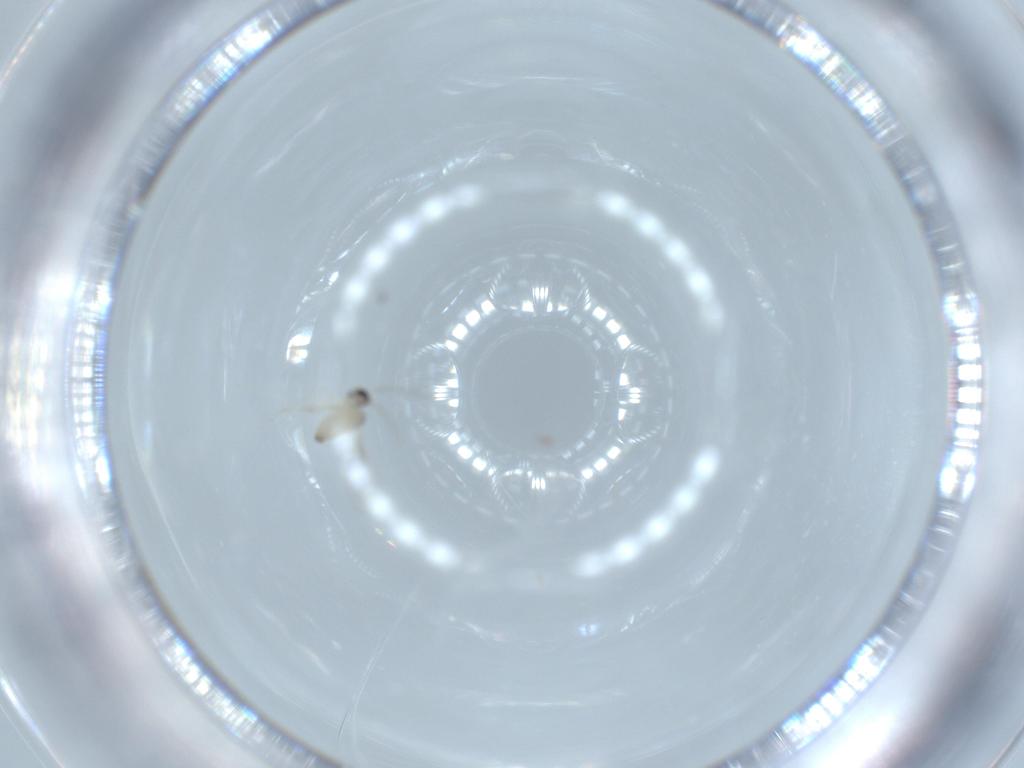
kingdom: Animalia
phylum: Arthropoda
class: Insecta
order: Diptera
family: Cecidomyiidae
